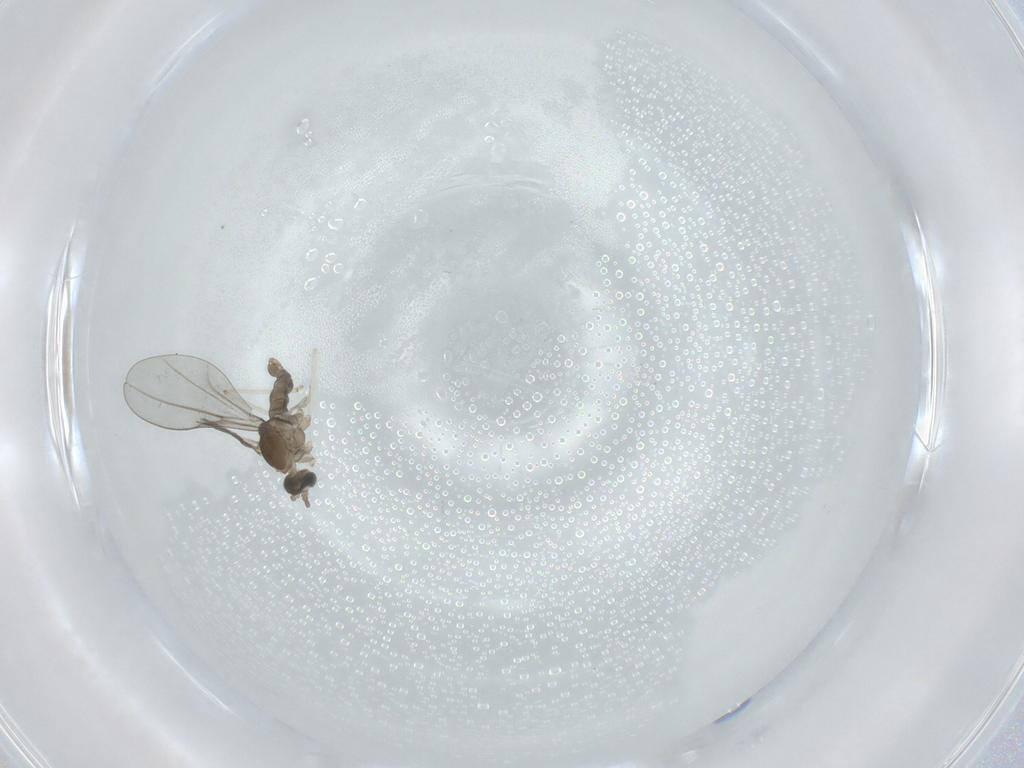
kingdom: Animalia
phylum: Arthropoda
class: Insecta
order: Diptera
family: Cecidomyiidae
